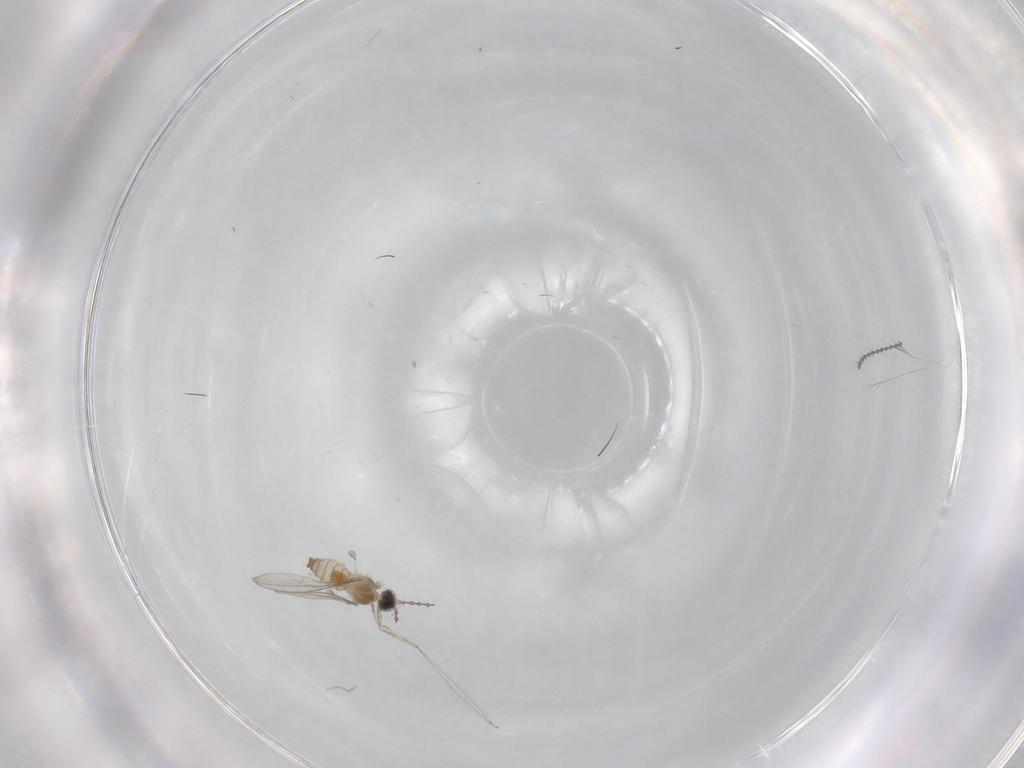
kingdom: Animalia
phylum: Arthropoda
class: Insecta
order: Diptera
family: Cecidomyiidae
